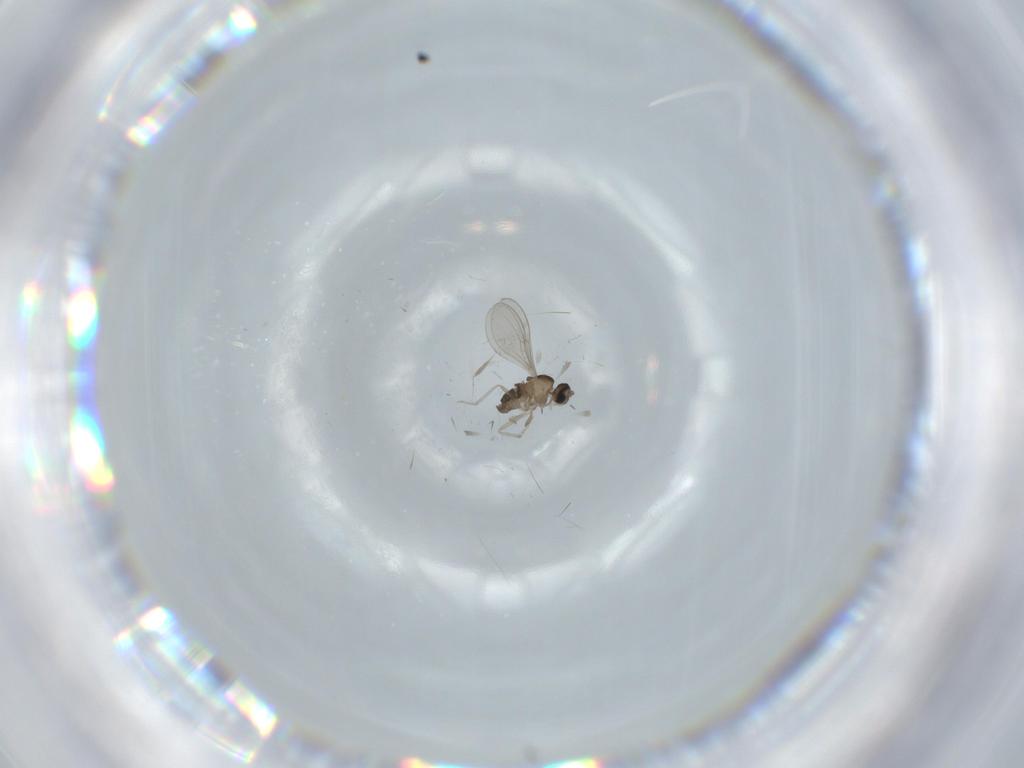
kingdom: Animalia
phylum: Arthropoda
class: Insecta
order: Diptera
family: Cecidomyiidae
